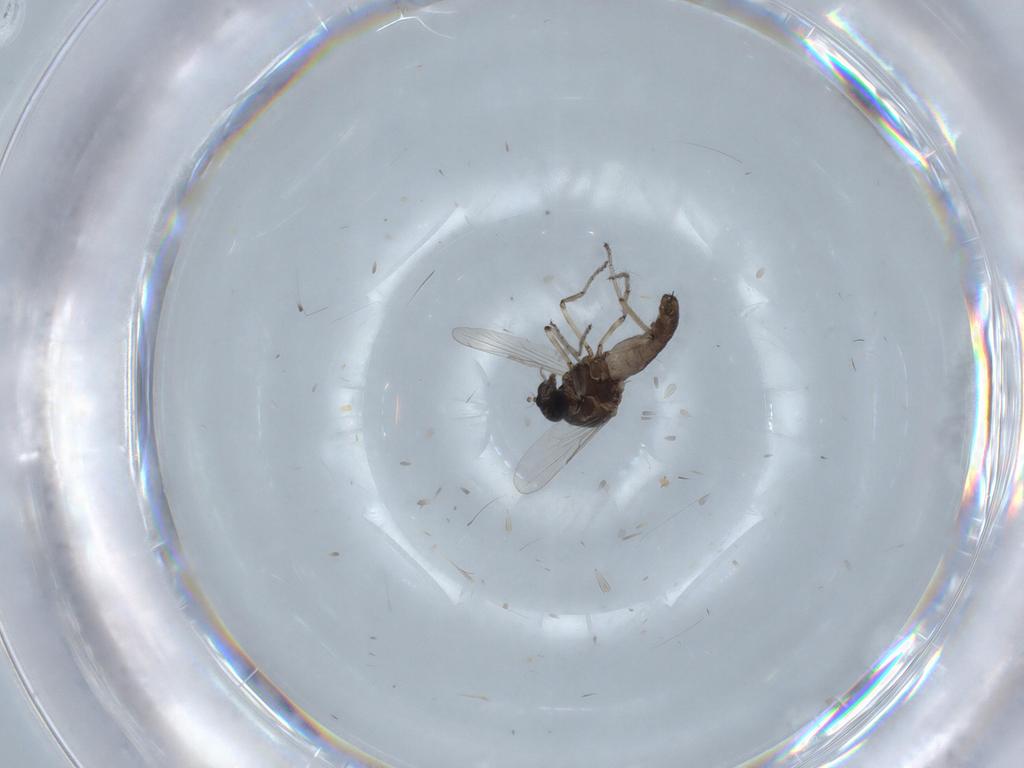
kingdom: Animalia
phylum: Arthropoda
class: Insecta
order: Diptera
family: Ceratopogonidae
